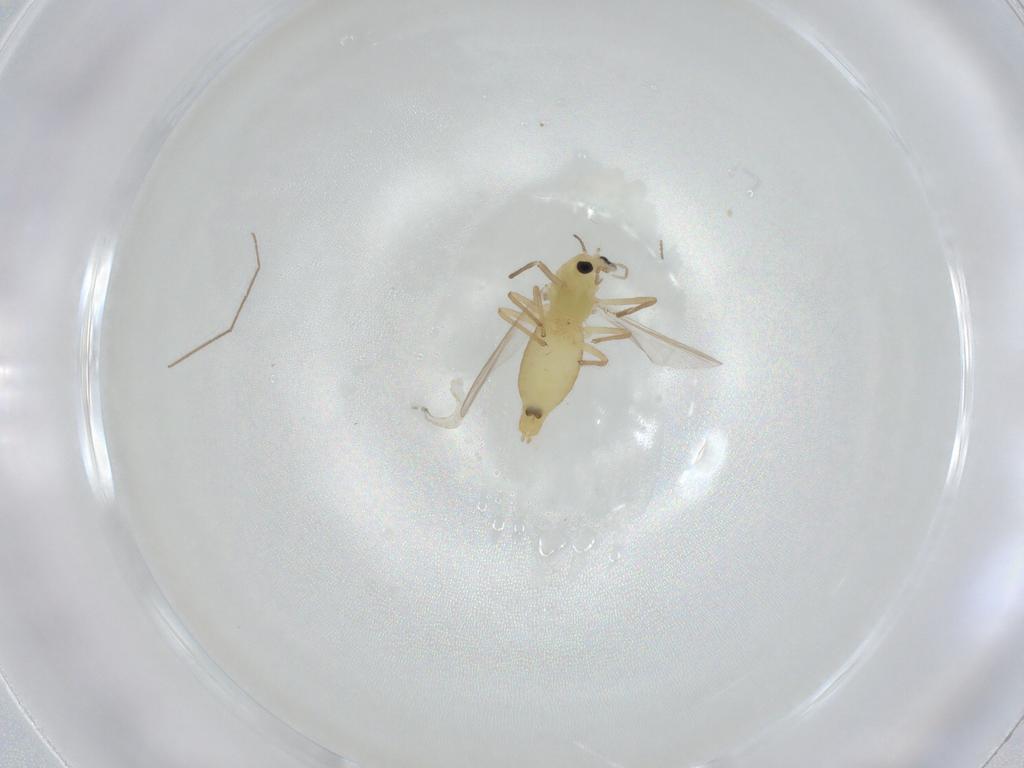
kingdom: Animalia
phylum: Arthropoda
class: Insecta
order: Diptera
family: Chironomidae
